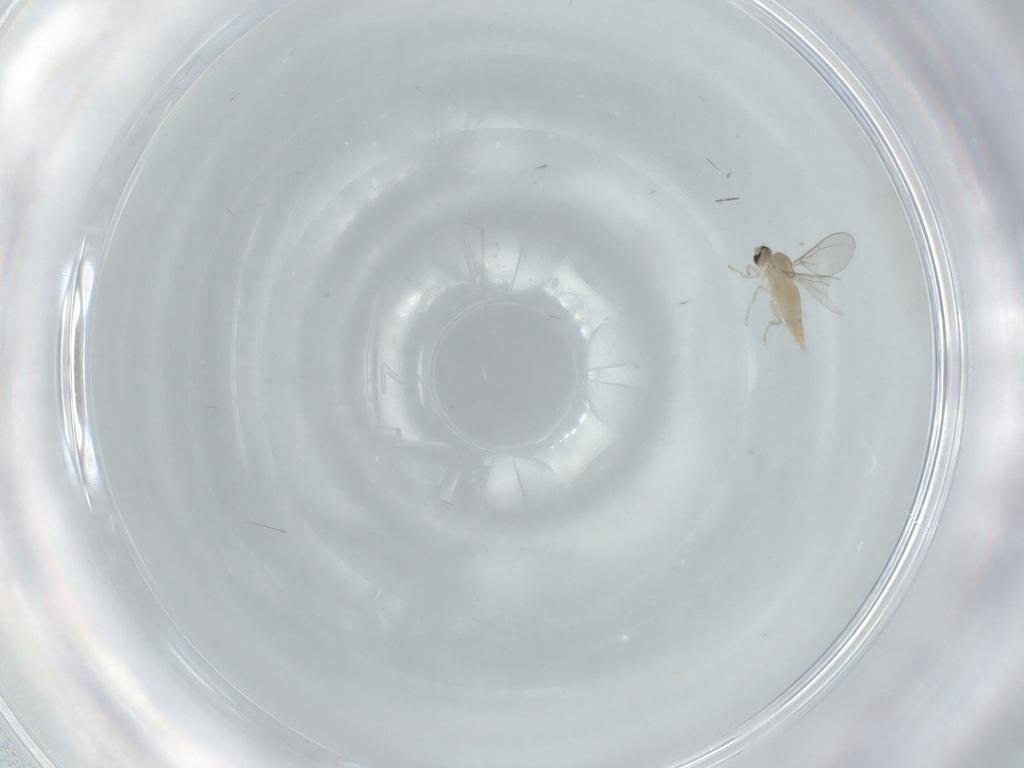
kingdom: Animalia
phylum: Arthropoda
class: Insecta
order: Diptera
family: Cecidomyiidae
